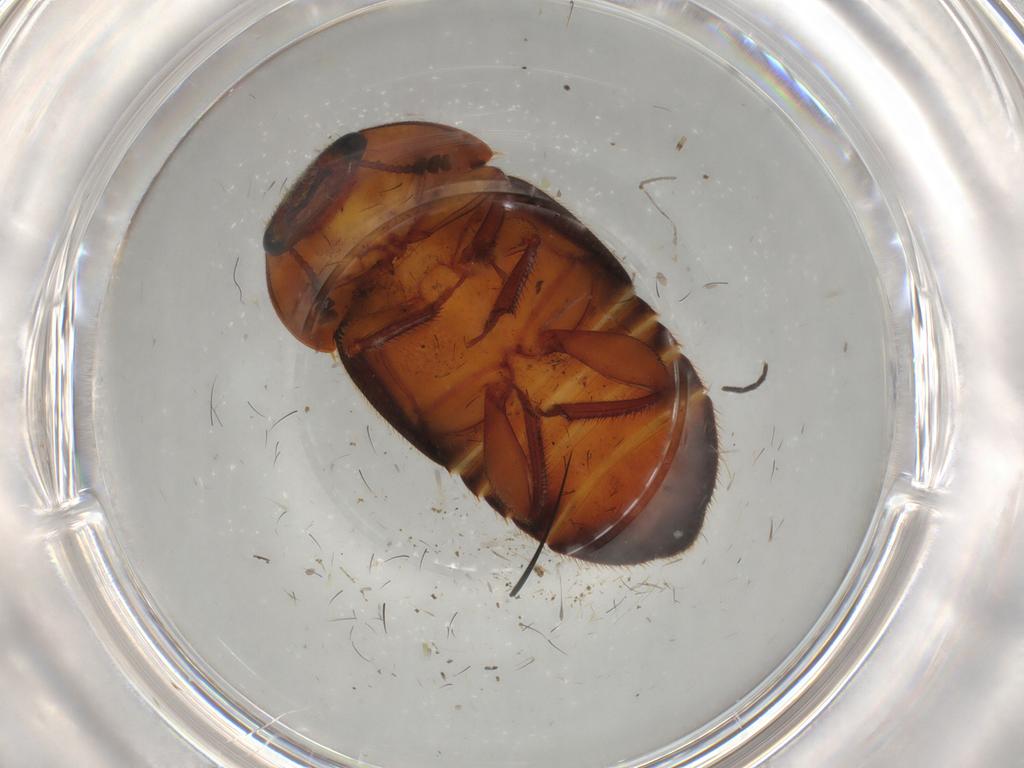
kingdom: Animalia
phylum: Arthropoda
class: Insecta
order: Coleoptera
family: Nitidulidae
